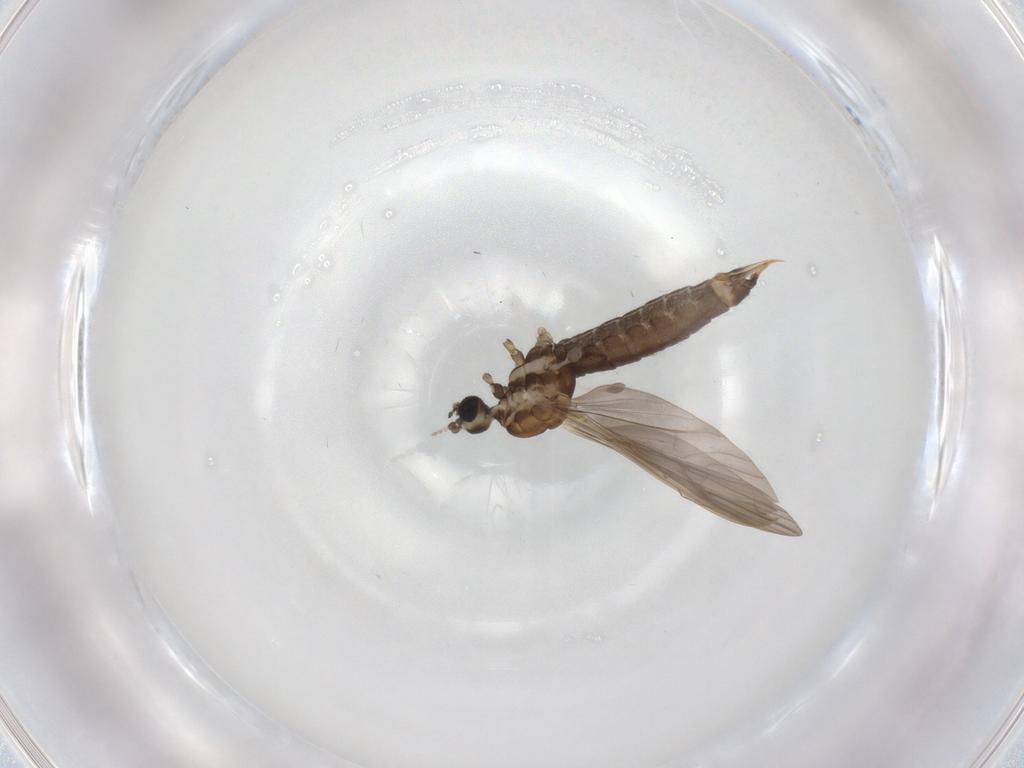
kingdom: Animalia
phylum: Arthropoda
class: Insecta
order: Diptera
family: Limoniidae
